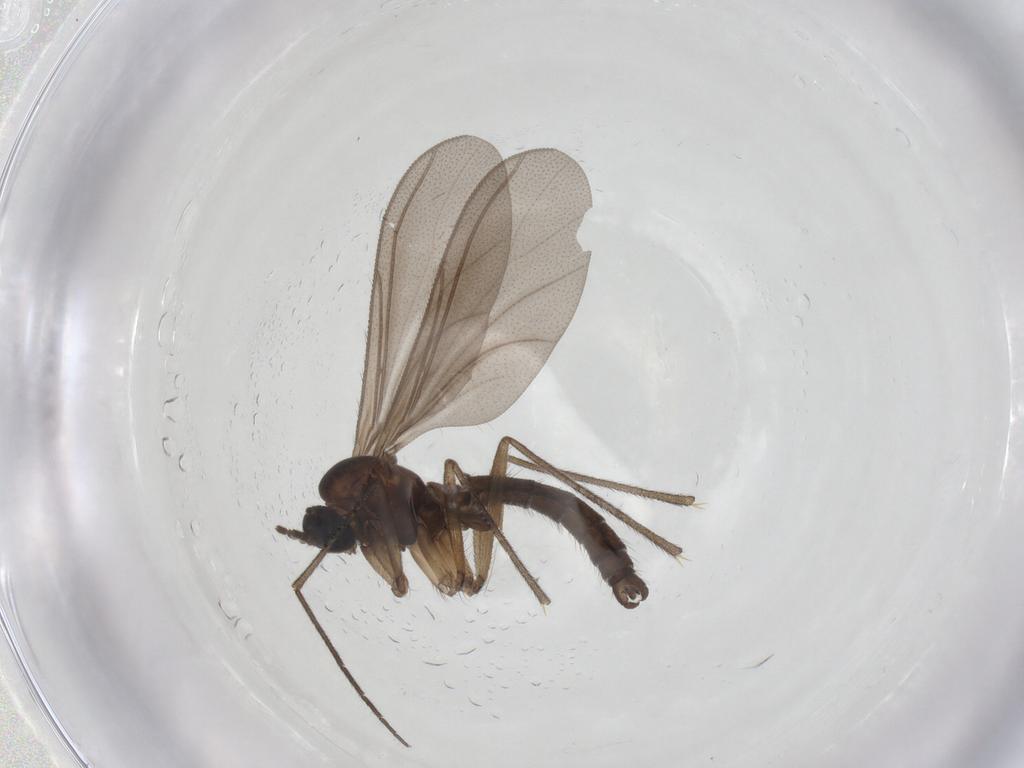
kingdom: Animalia
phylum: Arthropoda
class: Insecta
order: Diptera
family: Sciaridae
